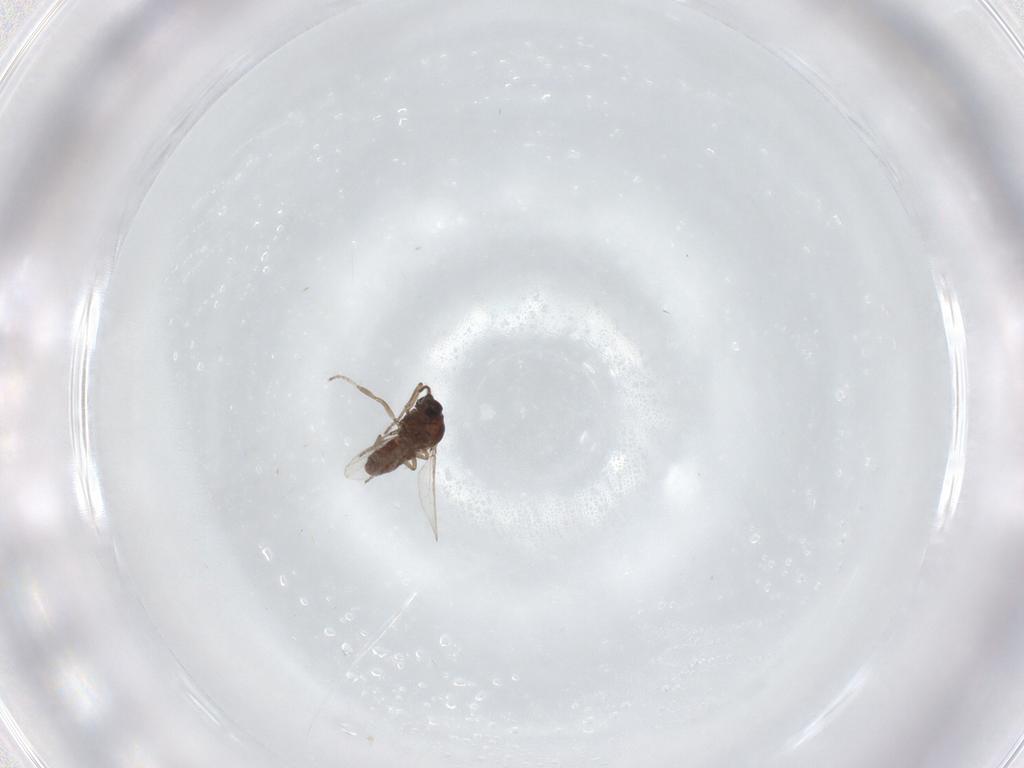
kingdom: Animalia
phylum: Arthropoda
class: Insecta
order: Diptera
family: Ceratopogonidae
